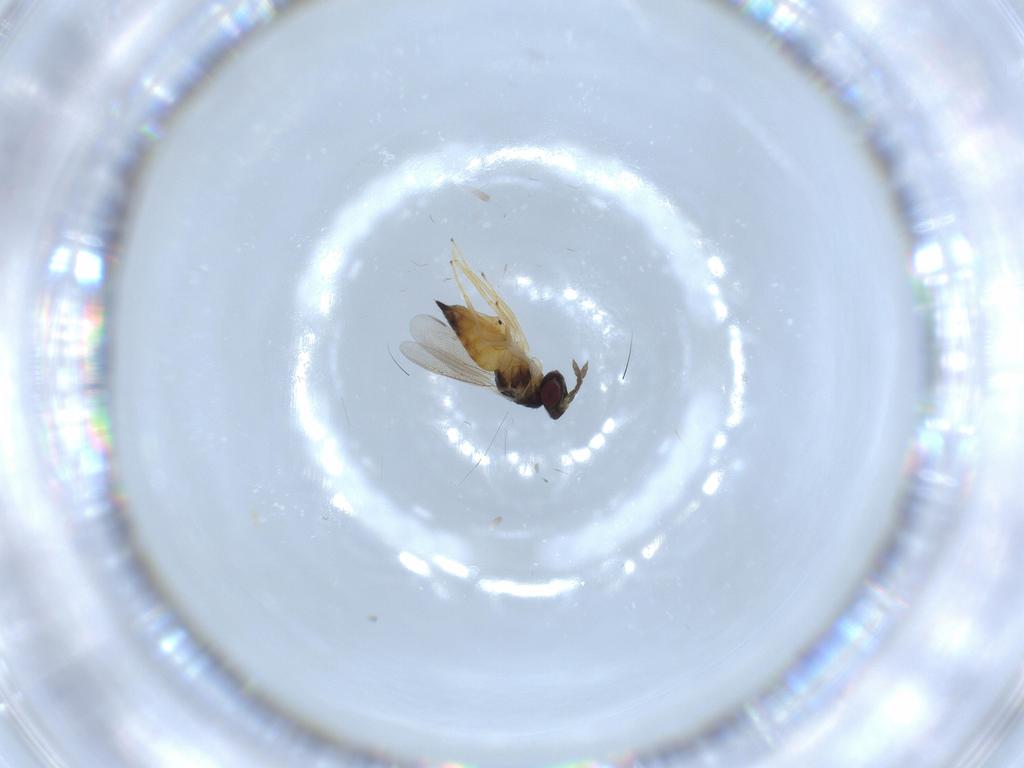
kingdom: Animalia
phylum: Arthropoda
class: Insecta
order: Hymenoptera
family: Eulophidae
